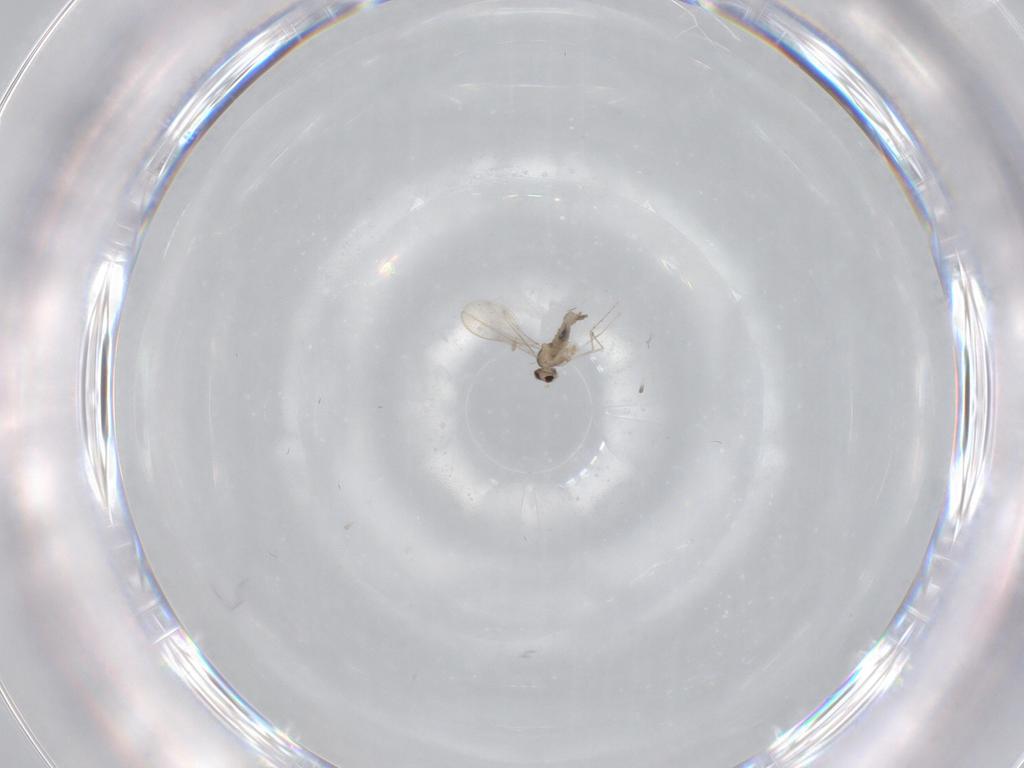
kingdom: Animalia
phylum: Arthropoda
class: Insecta
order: Diptera
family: Cecidomyiidae
